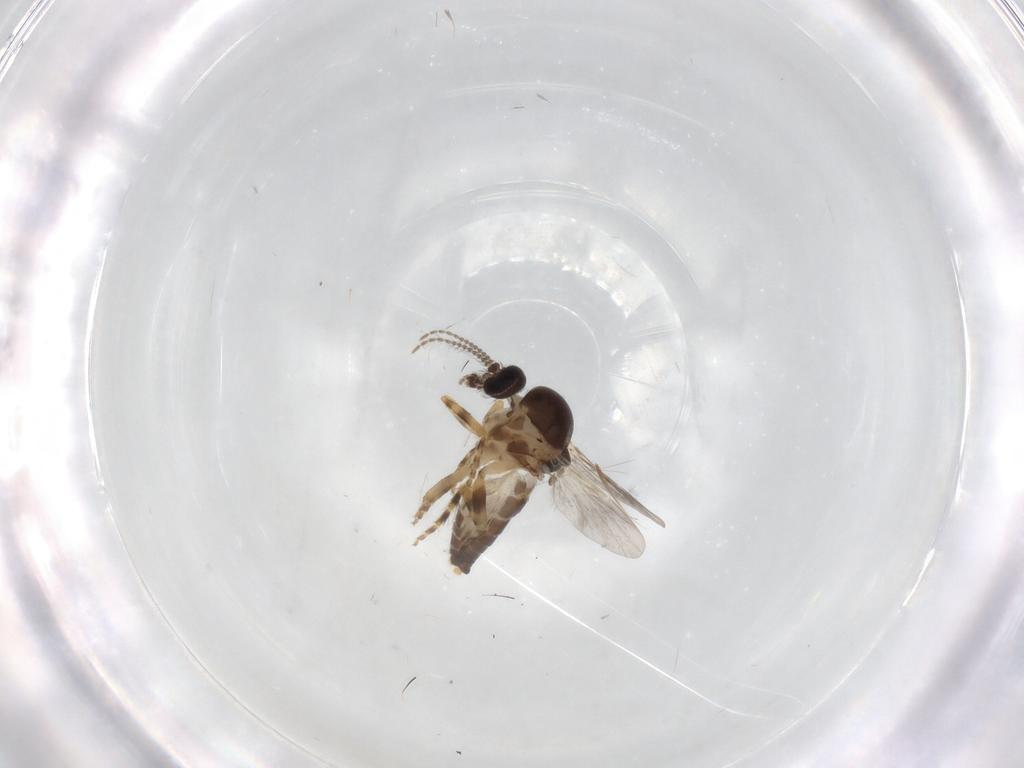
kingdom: Animalia
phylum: Arthropoda
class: Insecta
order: Diptera
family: Ceratopogonidae
